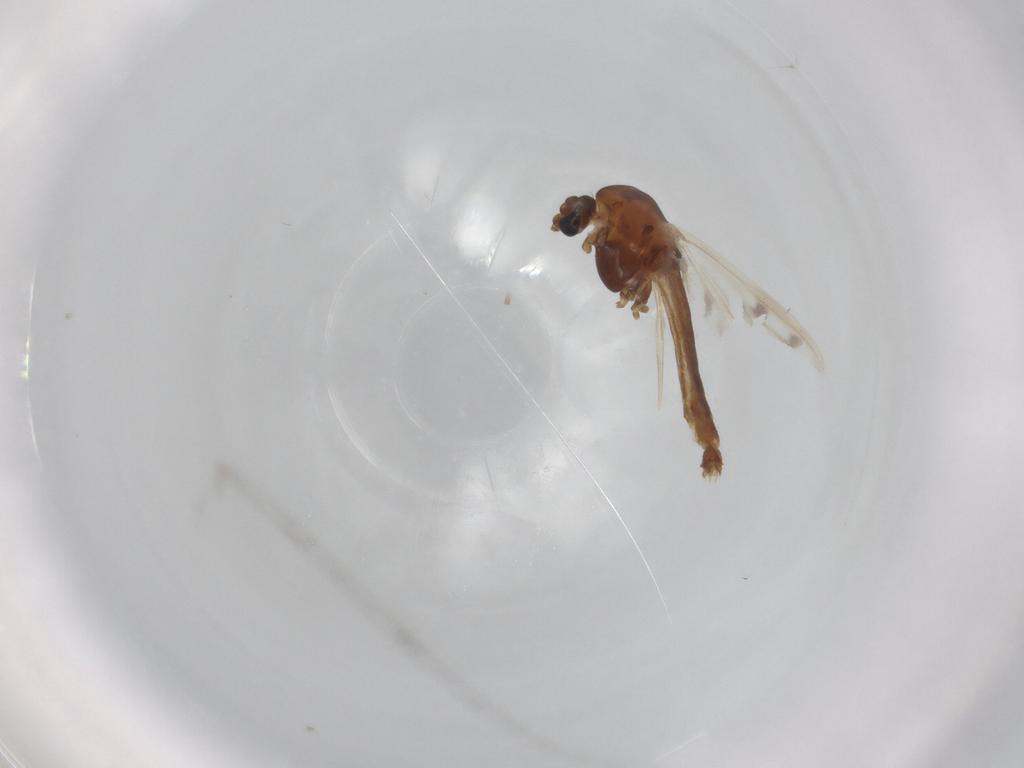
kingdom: Animalia
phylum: Arthropoda
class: Insecta
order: Diptera
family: Chironomidae
